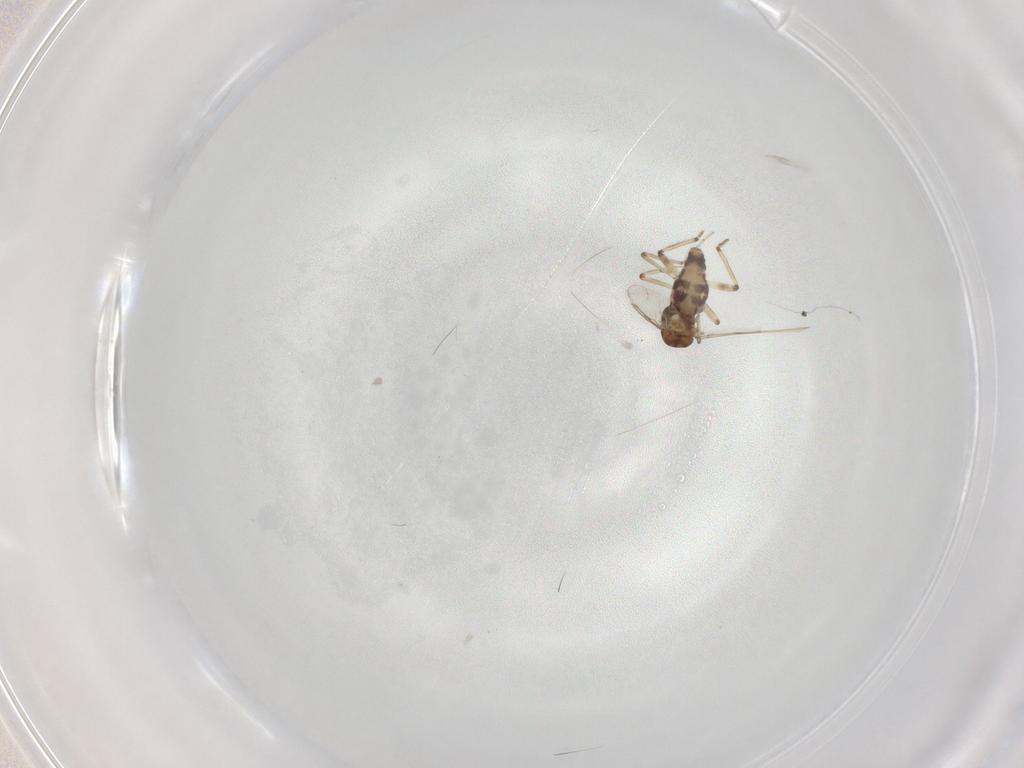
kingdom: Animalia
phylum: Arthropoda
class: Insecta
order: Diptera
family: Ceratopogonidae
